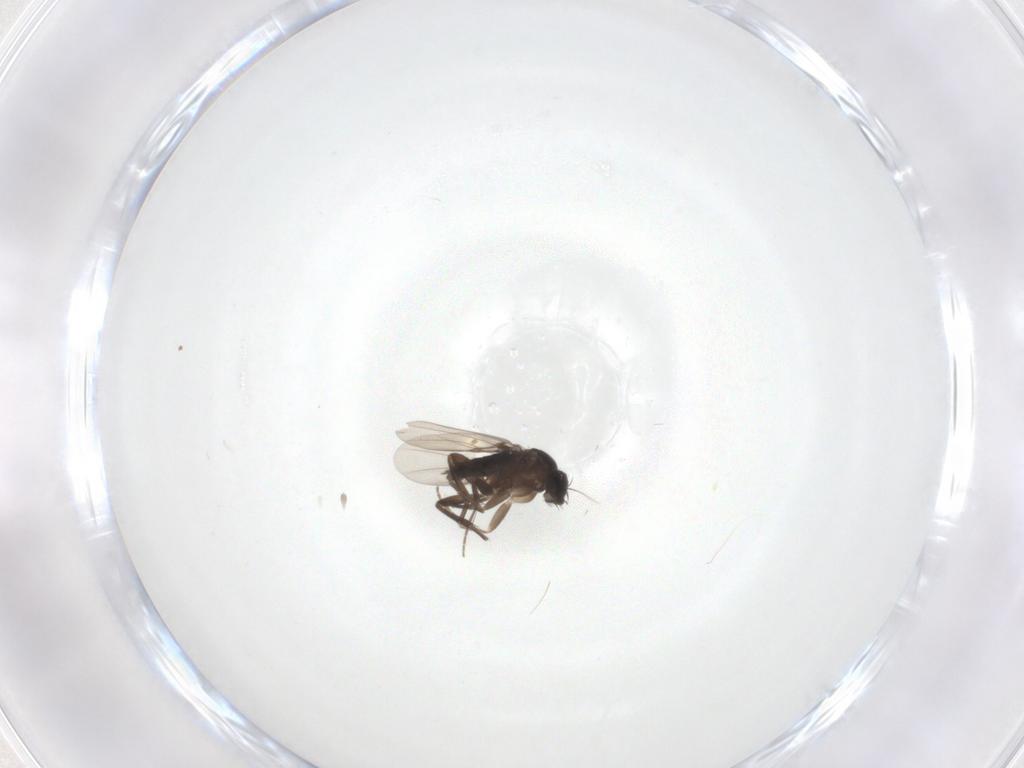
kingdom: Animalia
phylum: Arthropoda
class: Insecta
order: Diptera
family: Phoridae
